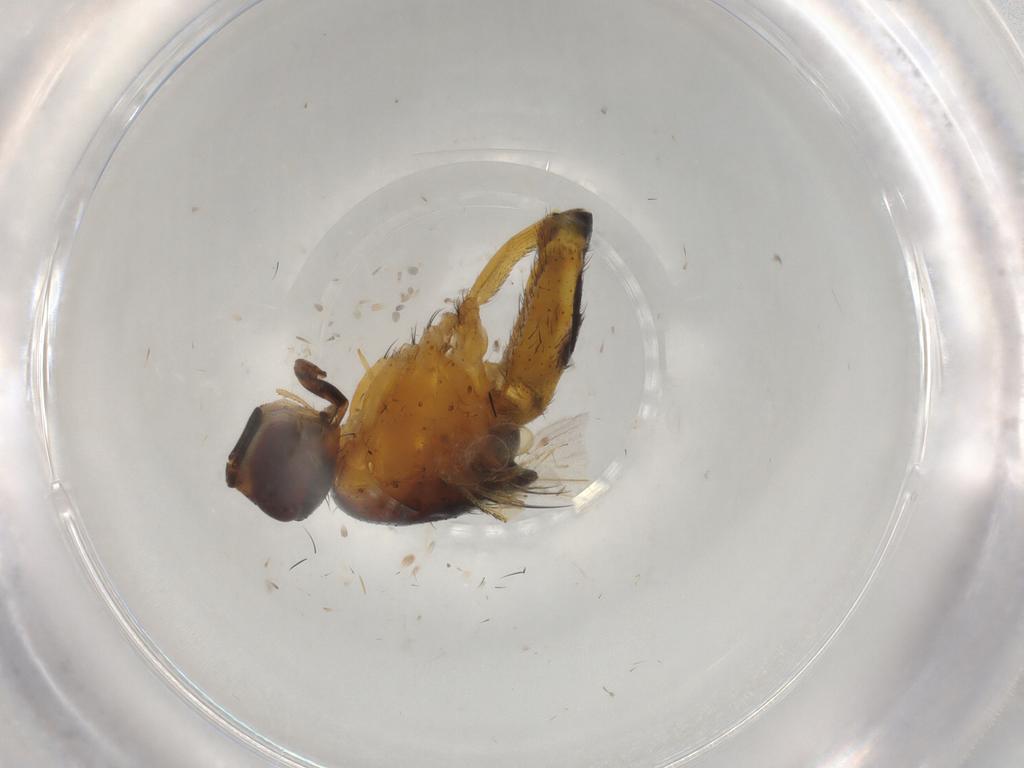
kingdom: Animalia
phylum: Arthropoda
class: Insecta
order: Diptera
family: Muscidae
